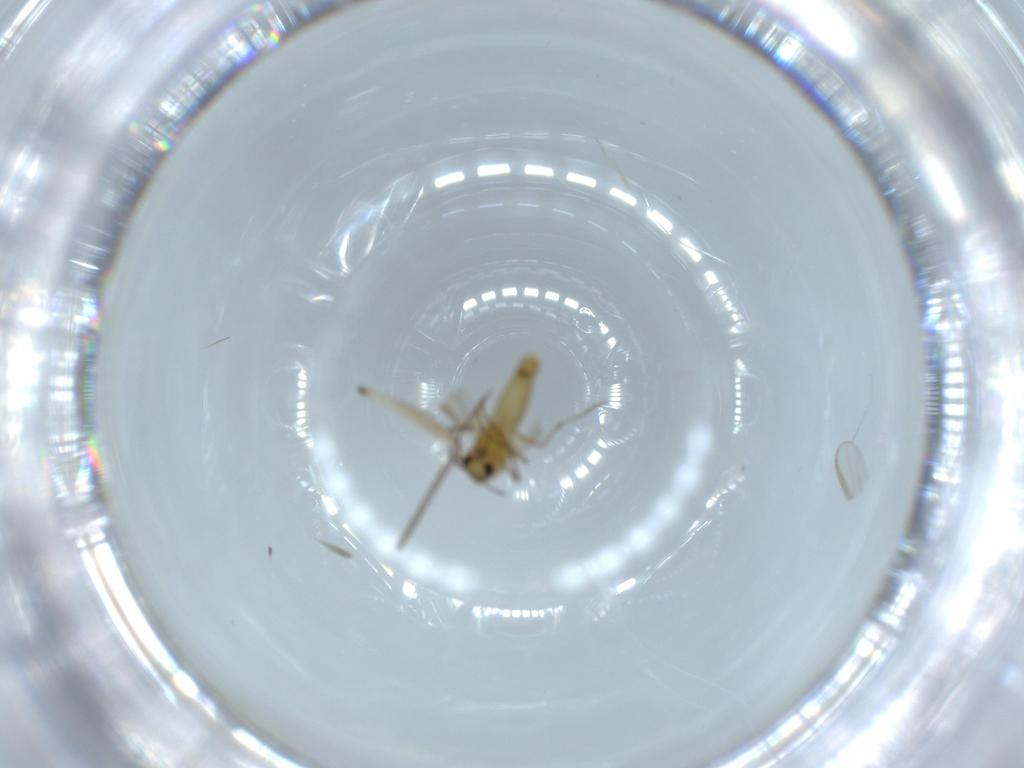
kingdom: Animalia
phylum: Arthropoda
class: Insecta
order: Diptera
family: Chironomidae
